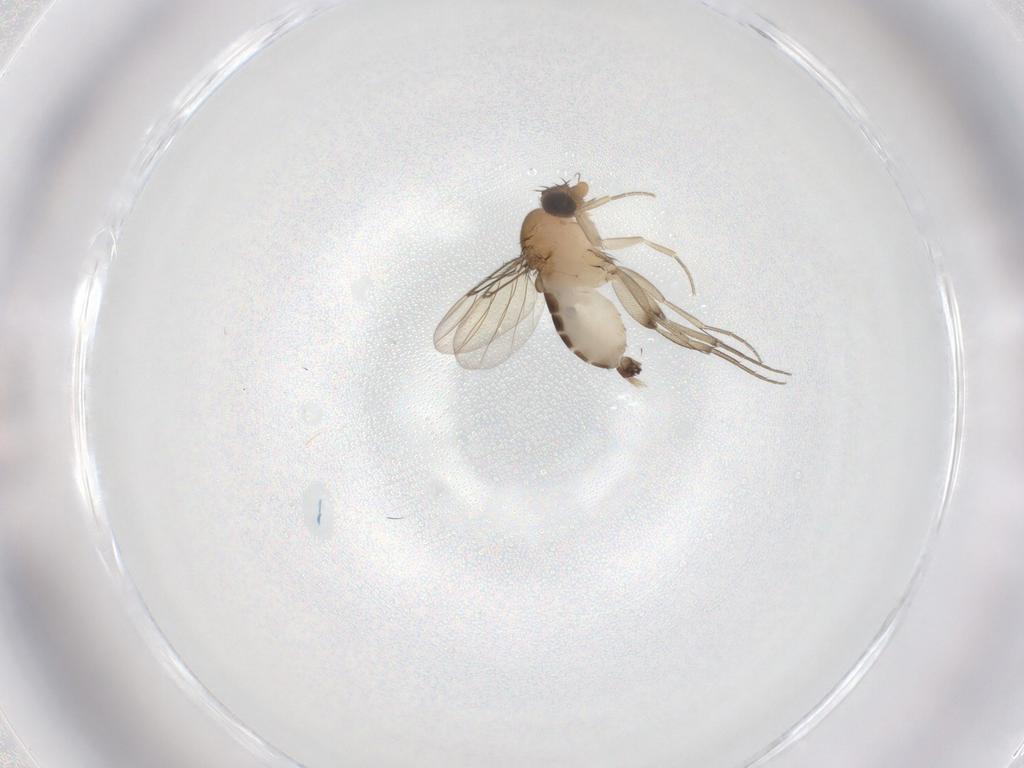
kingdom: Animalia
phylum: Arthropoda
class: Insecta
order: Diptera
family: Phoridae
